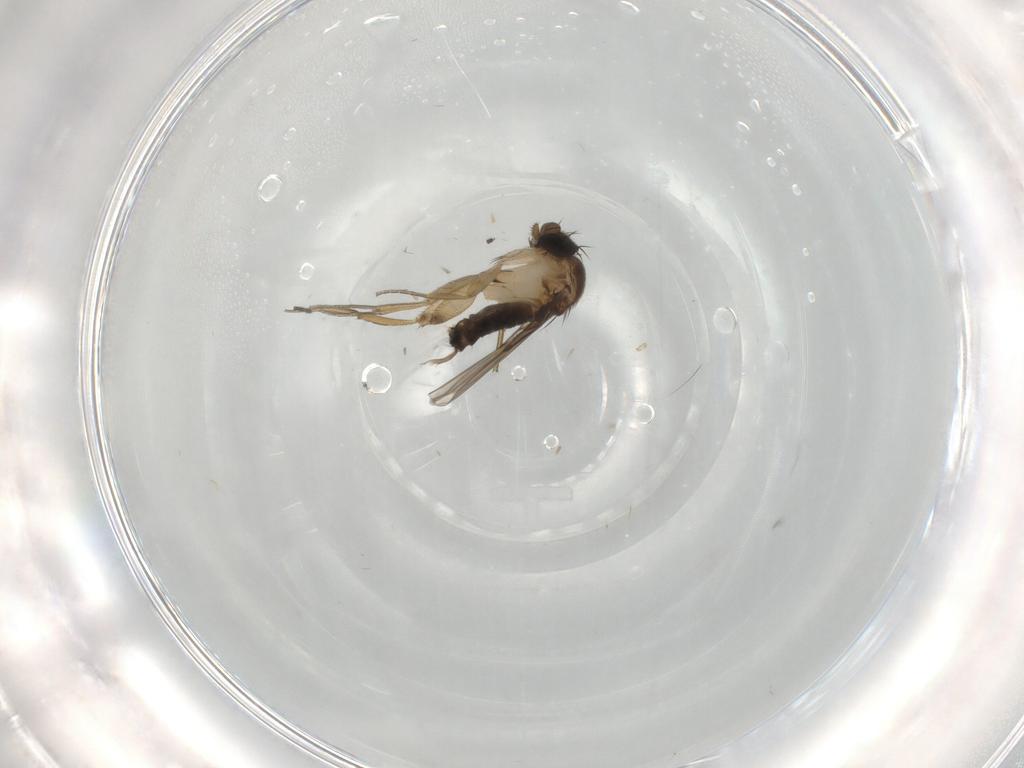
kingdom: Animalia
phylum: Arthropoda
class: Insecta
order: Diptera
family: Phoridae
